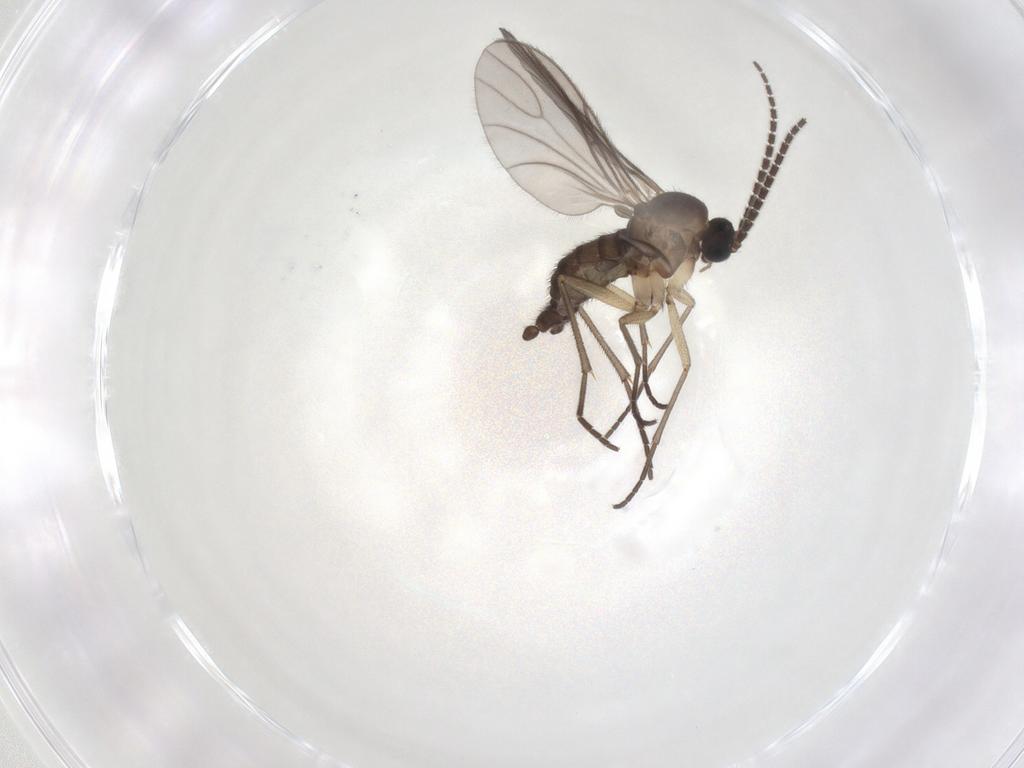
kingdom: Animalia
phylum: Arthropoda
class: Insecta
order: Diptera
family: Sciaridae
